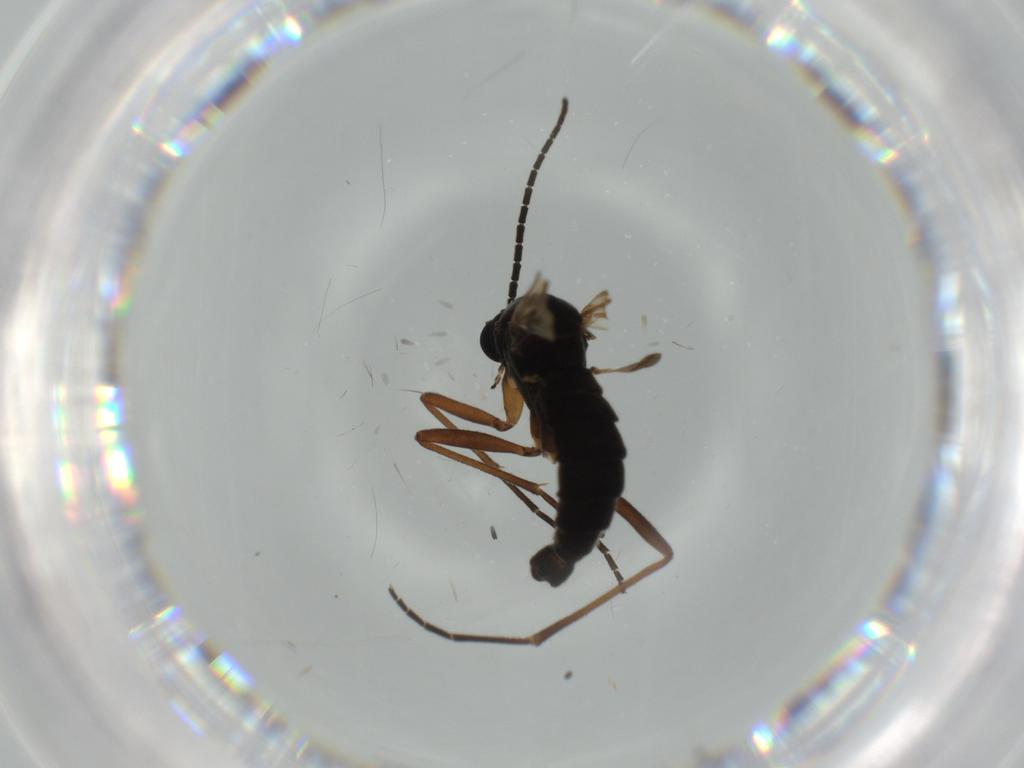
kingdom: Animalia
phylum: Arthropoda
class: Insecta
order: Diptera
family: Sciaridae
